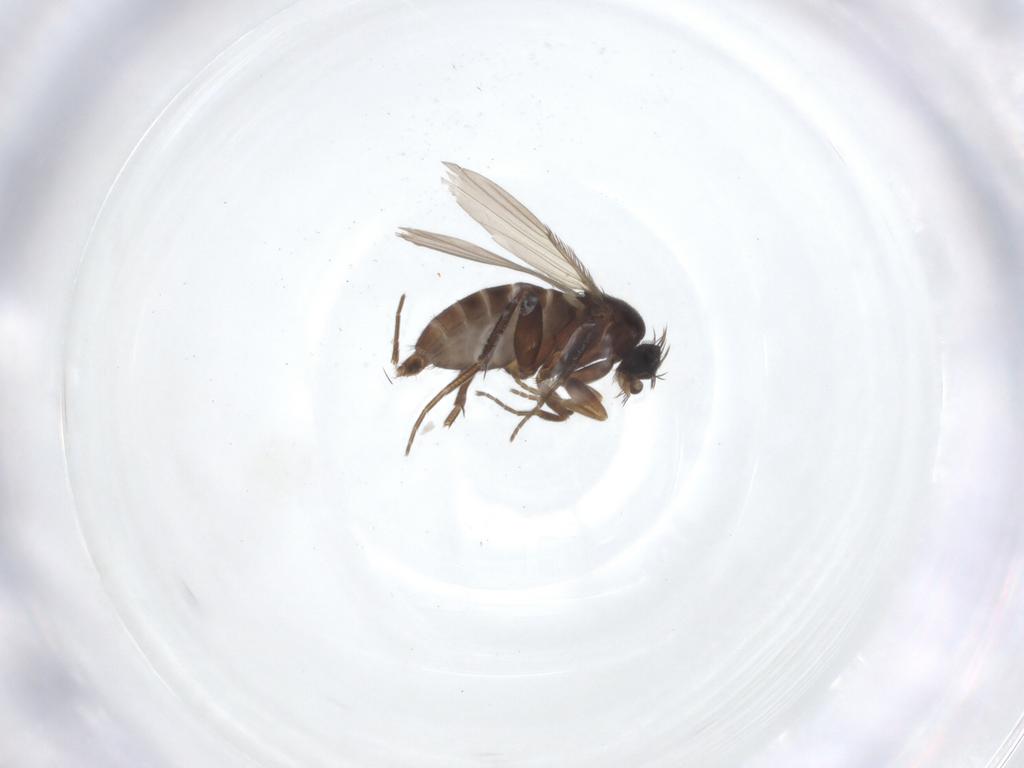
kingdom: Animalia
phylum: Arthropoda
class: Insecta
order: Diptera
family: Phoridae
